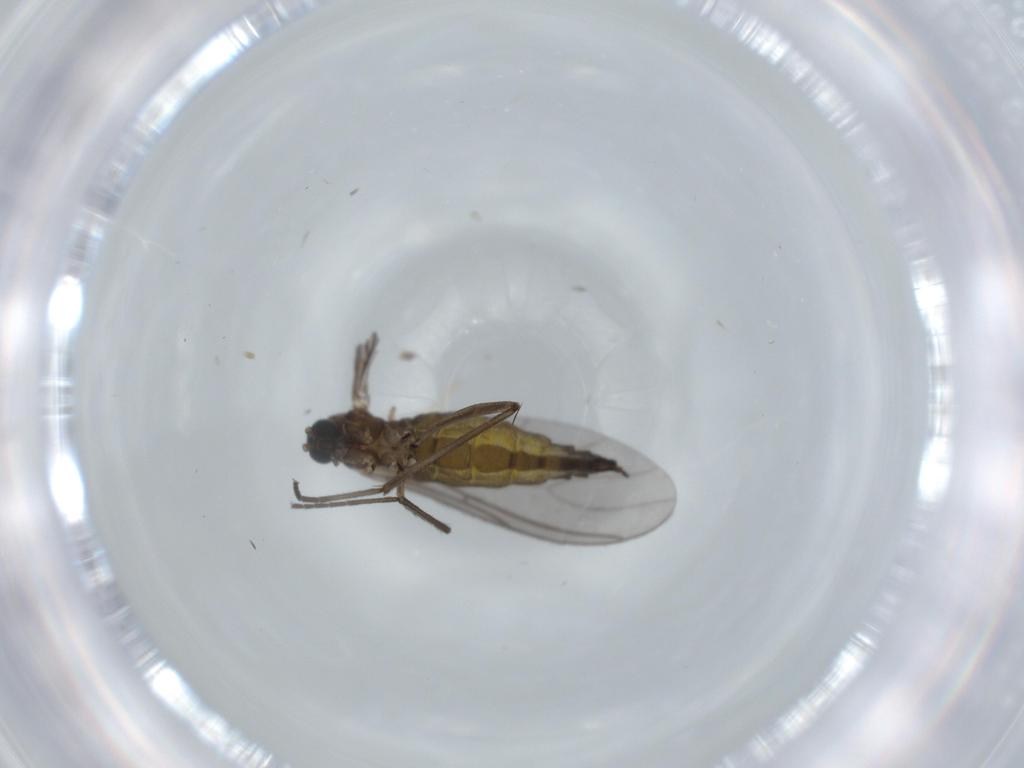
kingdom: Animalia
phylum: Arthropoda
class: Insecta
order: Diptera
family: Sciaridae
